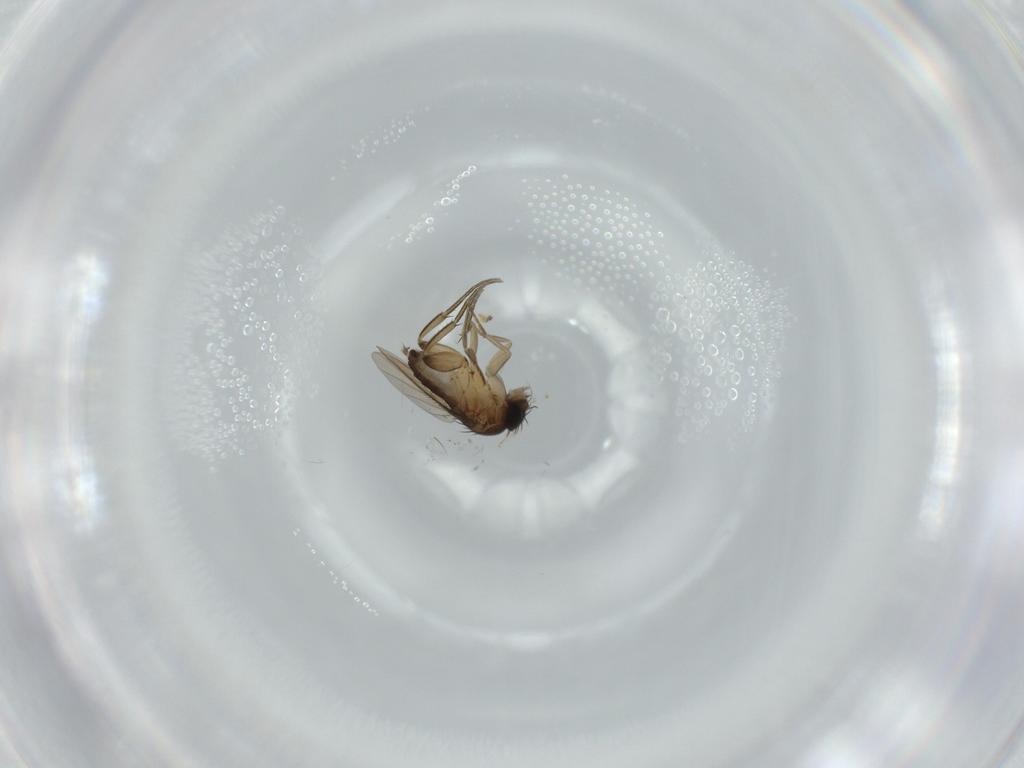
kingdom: Animalia
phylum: Arthropoda
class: Insecta
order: Diptera
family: Phoridae
